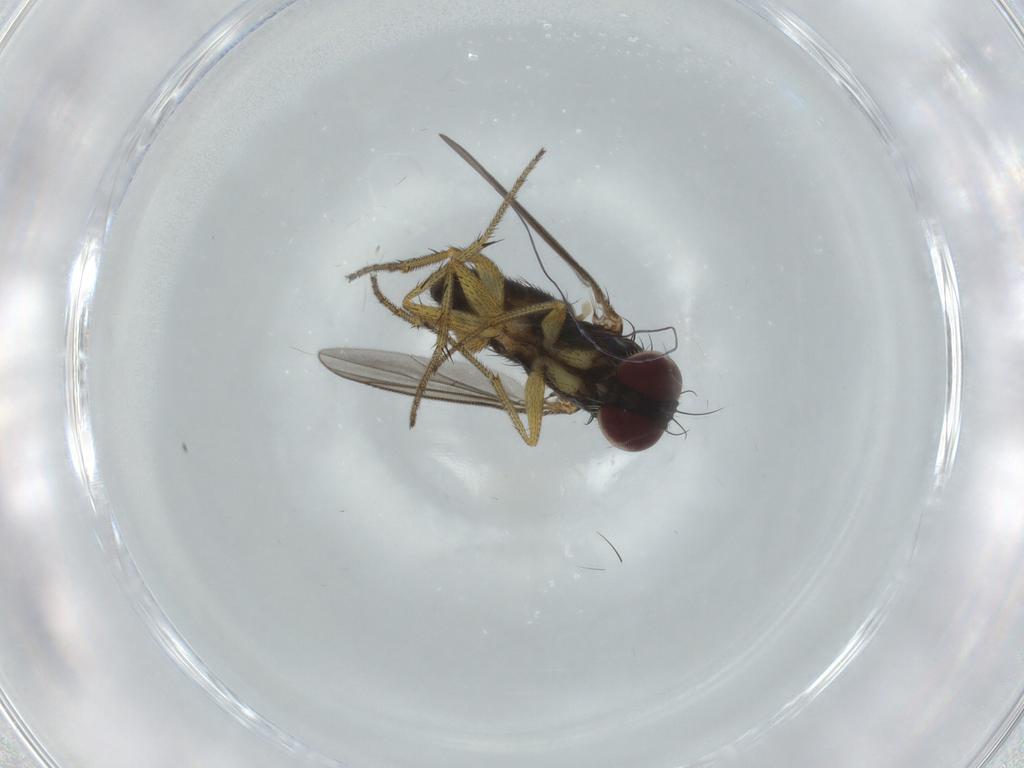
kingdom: Animalia
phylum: Arthropoda
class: Insecta
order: Diptera
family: Dolichopodidae
